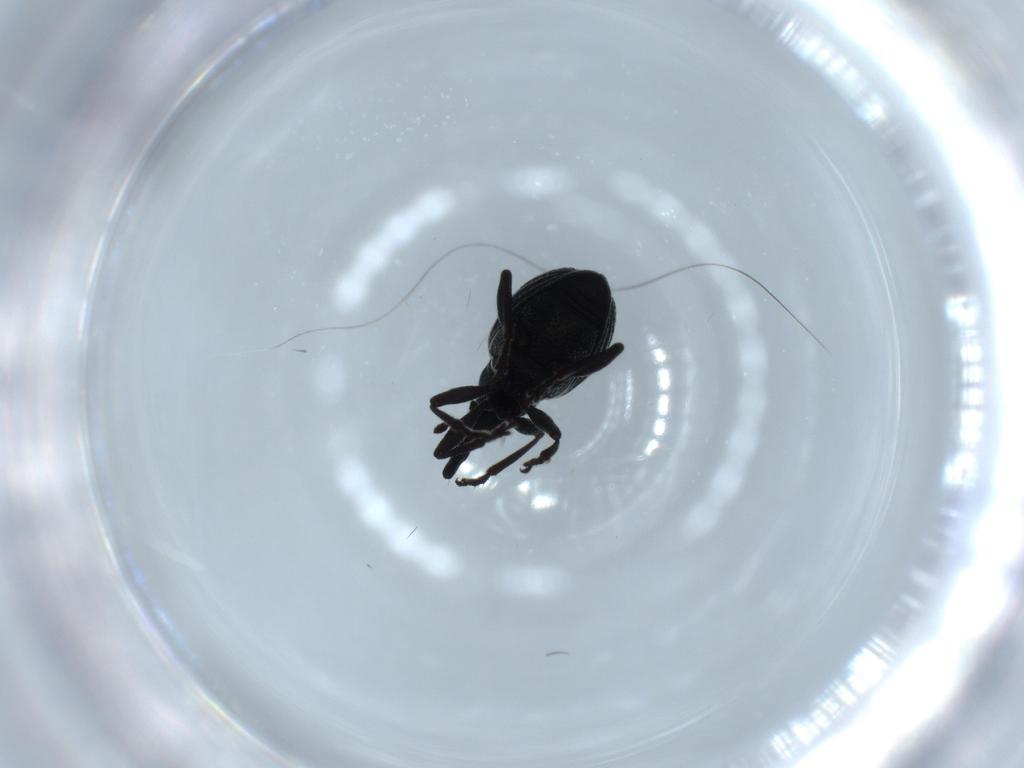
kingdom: Animalia
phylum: Arthropoda
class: Insecta
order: Coleoptera
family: Brentidae
